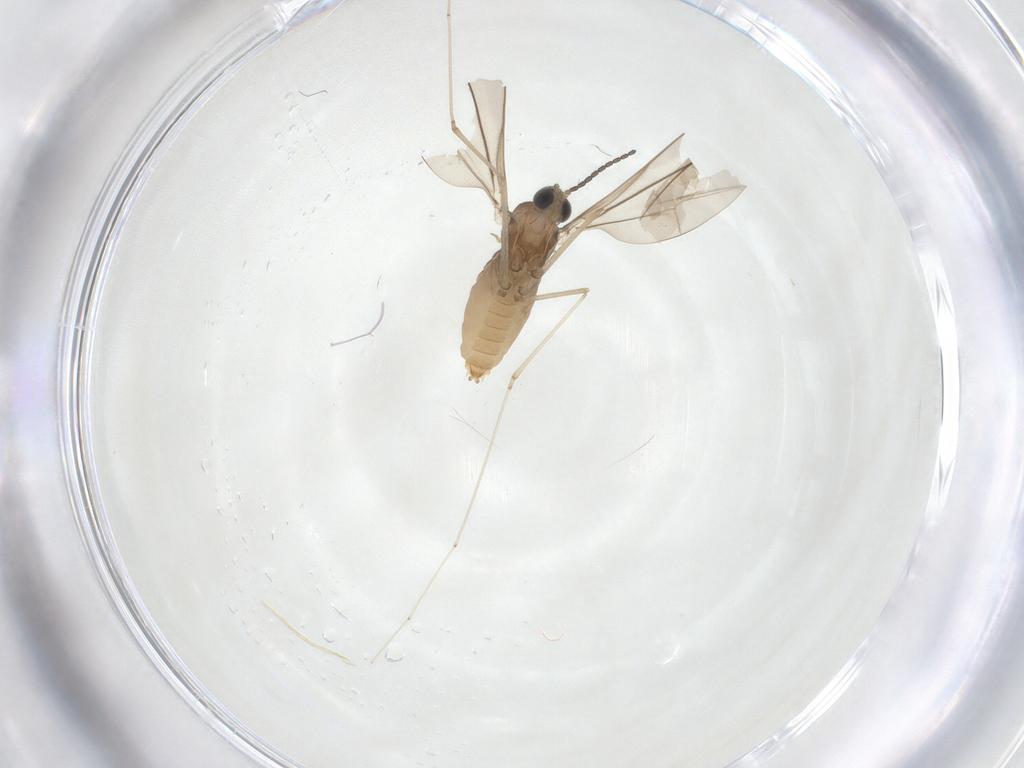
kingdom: Animalia
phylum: Arthropoda
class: Insecta
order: Diptera
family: Cecidomyiidae
